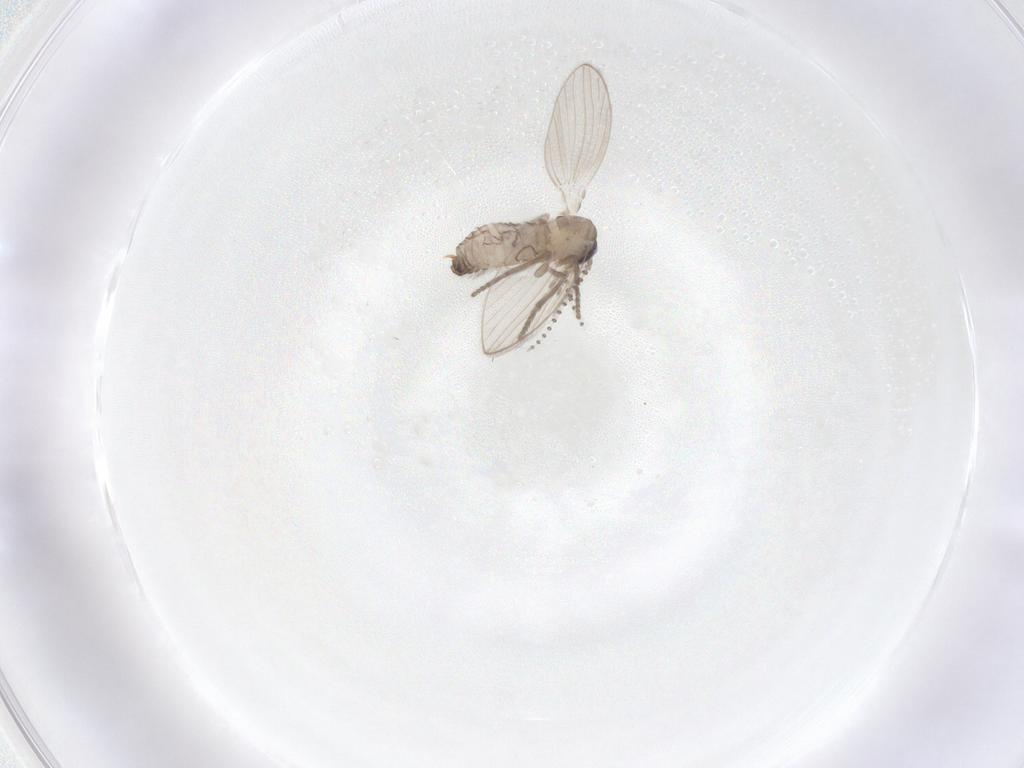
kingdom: Animalia
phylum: Arthropoda
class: Insecta
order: Diptera
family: Psychodidae
